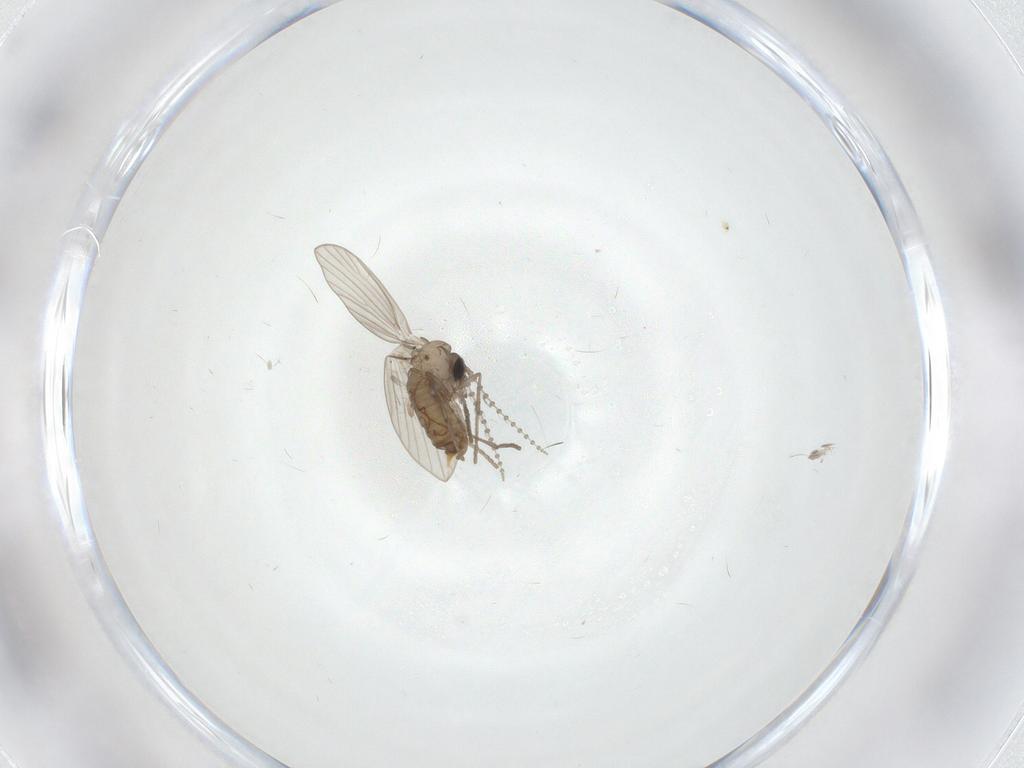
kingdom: Animalia
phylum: Arthropoda
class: Insecta
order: Diptera
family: Psychodidae
